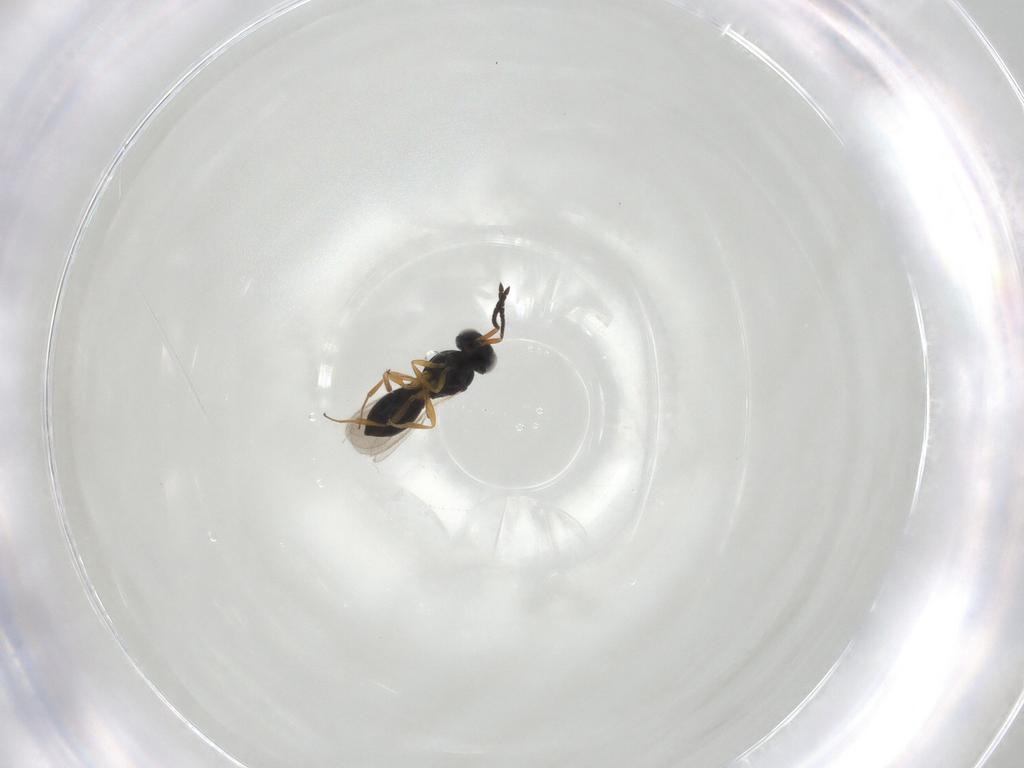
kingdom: Animalia
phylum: Arthropoda
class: Insecta
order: Hymenoptera
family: Scelionidae
